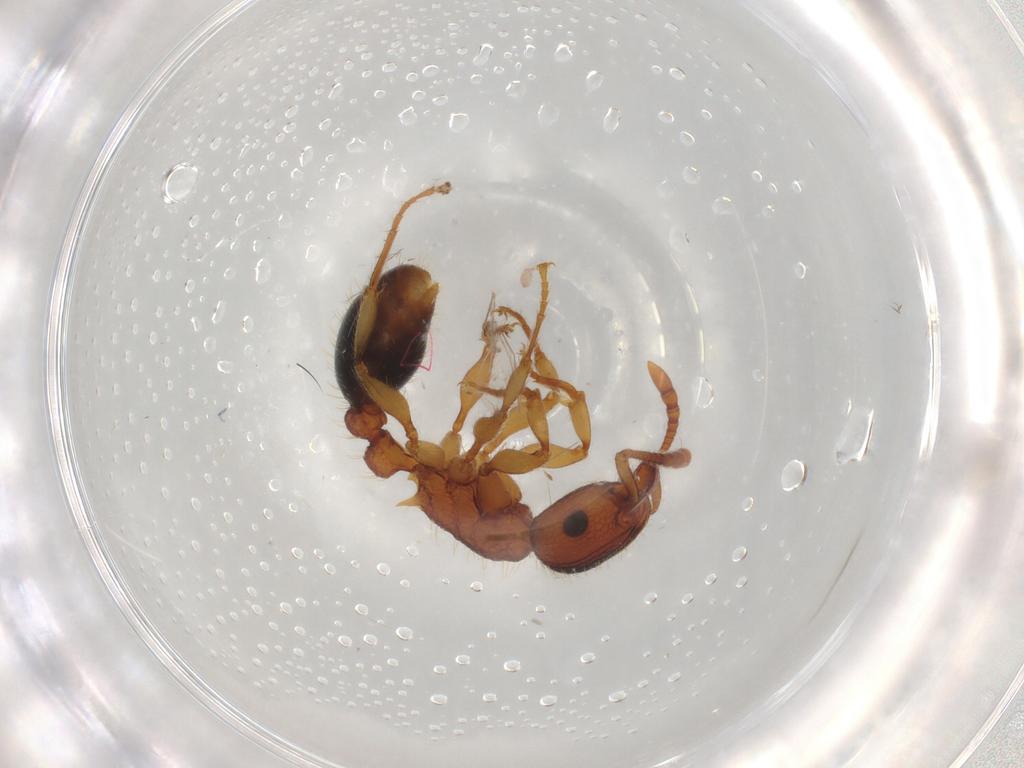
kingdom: Animalia
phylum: Arthropoda
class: Insecta
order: Hymenoptera
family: Formicidae
